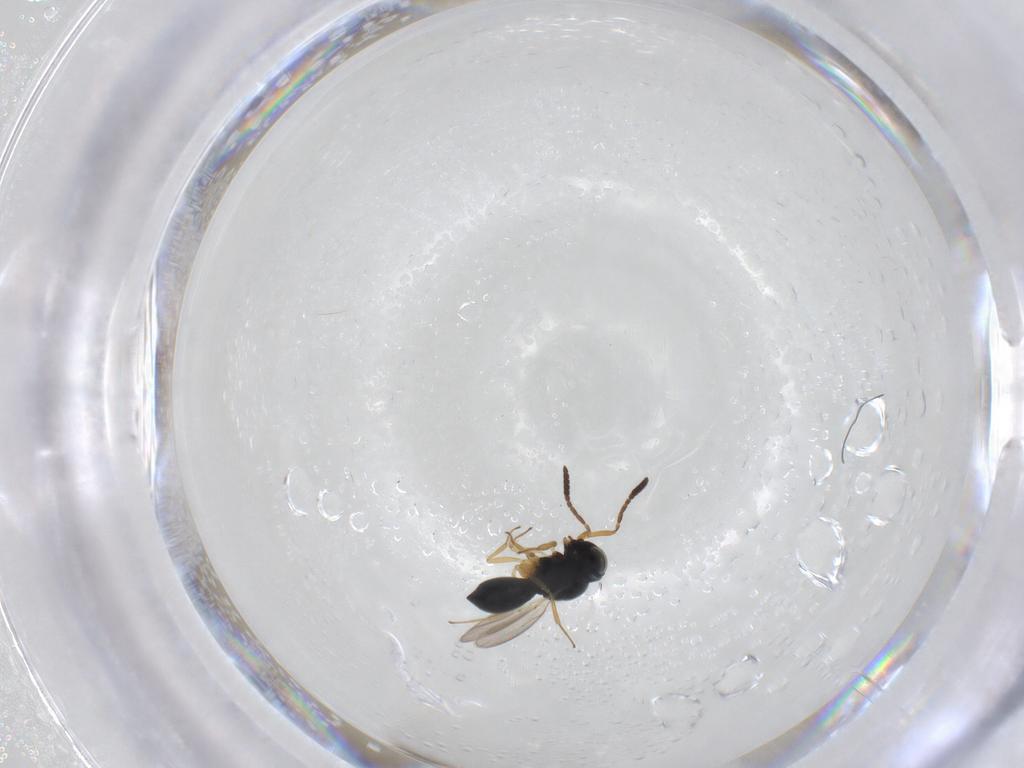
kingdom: Animalia
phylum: Arthropoda
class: Insecta
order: Hymenoptera
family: Scelionidae
